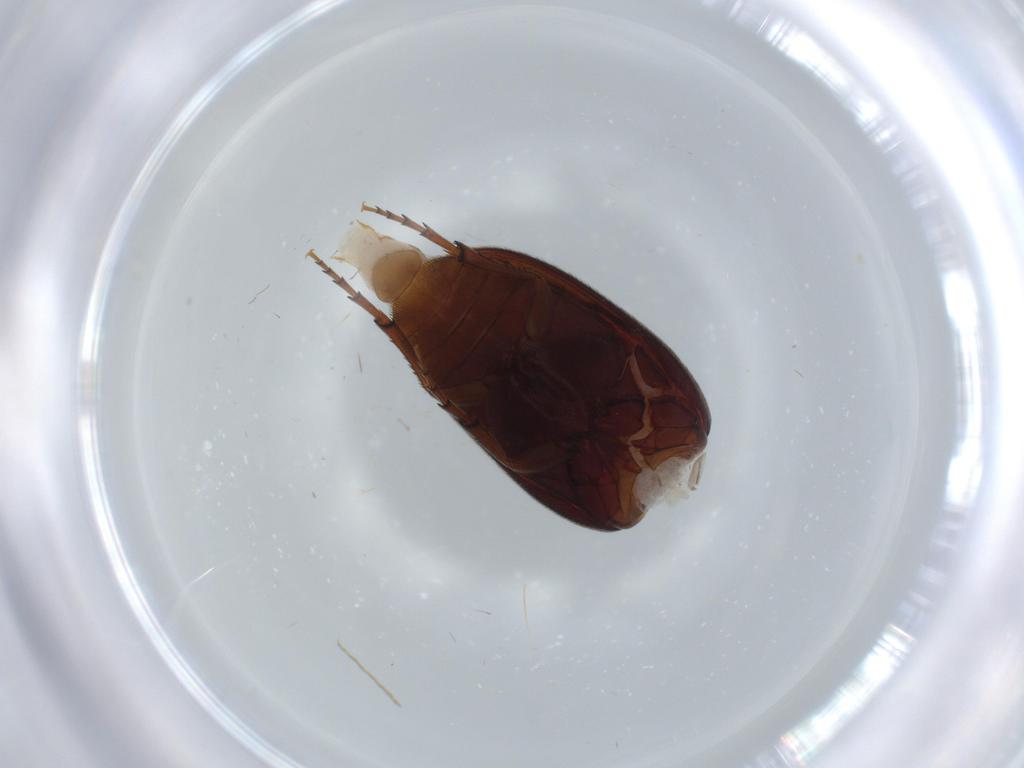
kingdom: Animalia
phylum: Arthropoda
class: Insecta
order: Coleoptera
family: Eucinetidae
